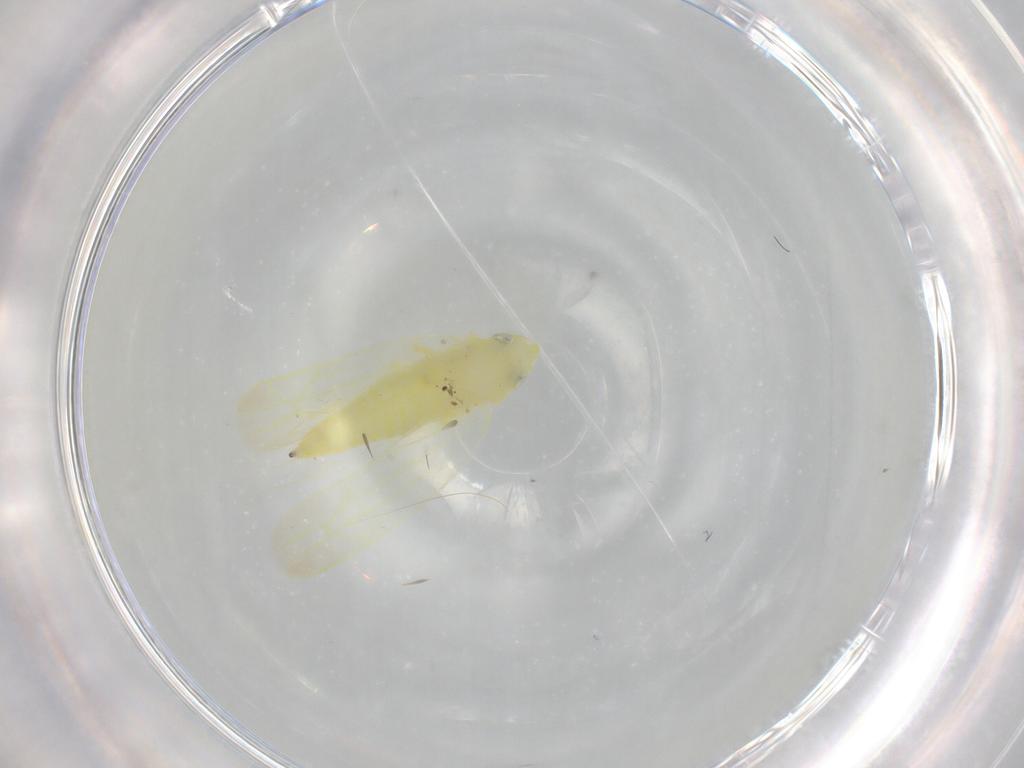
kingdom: Animalia
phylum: Arthropoda
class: Insecta
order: Hemiptera
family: Cicadellidae
